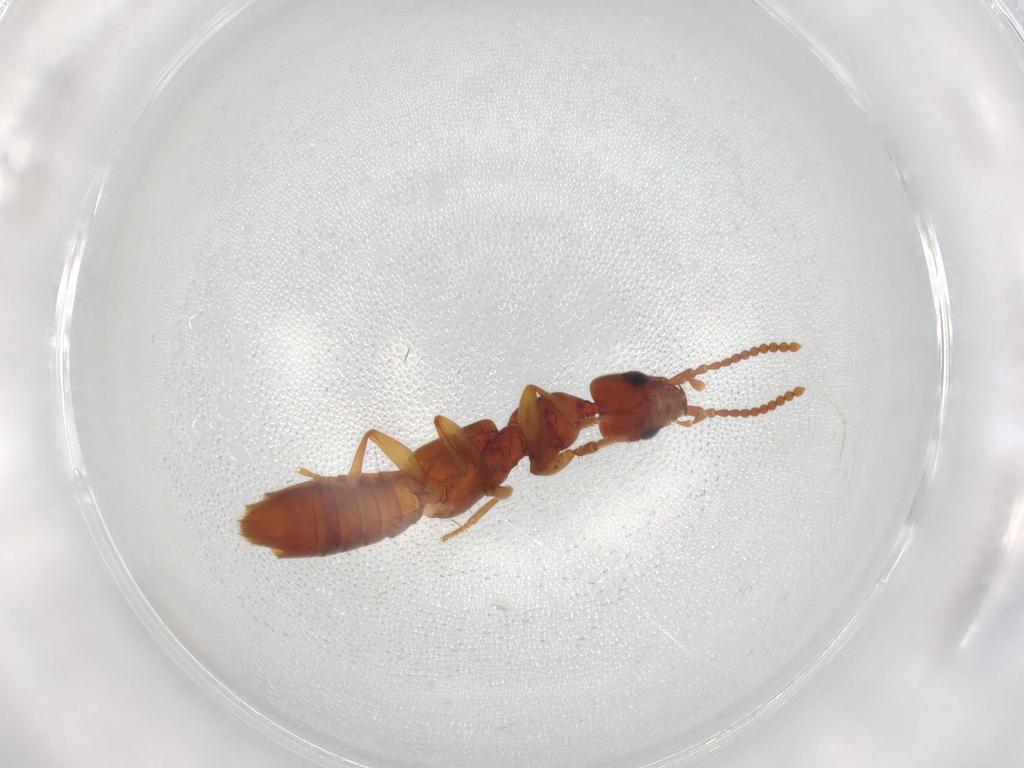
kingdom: Animalia
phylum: Arthropoda
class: Insecta
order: Coleoptera
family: Staphylinidae
